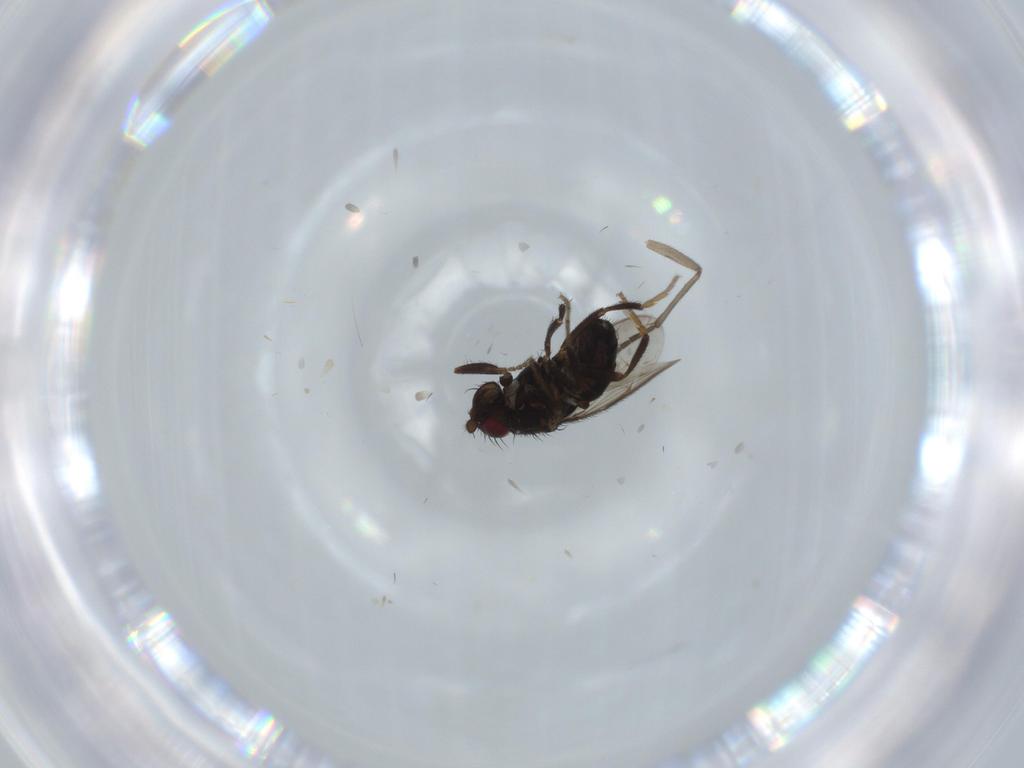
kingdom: Animalia
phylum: Arthropoda
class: Insecta
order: Diptera
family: Sphaeroceridae
